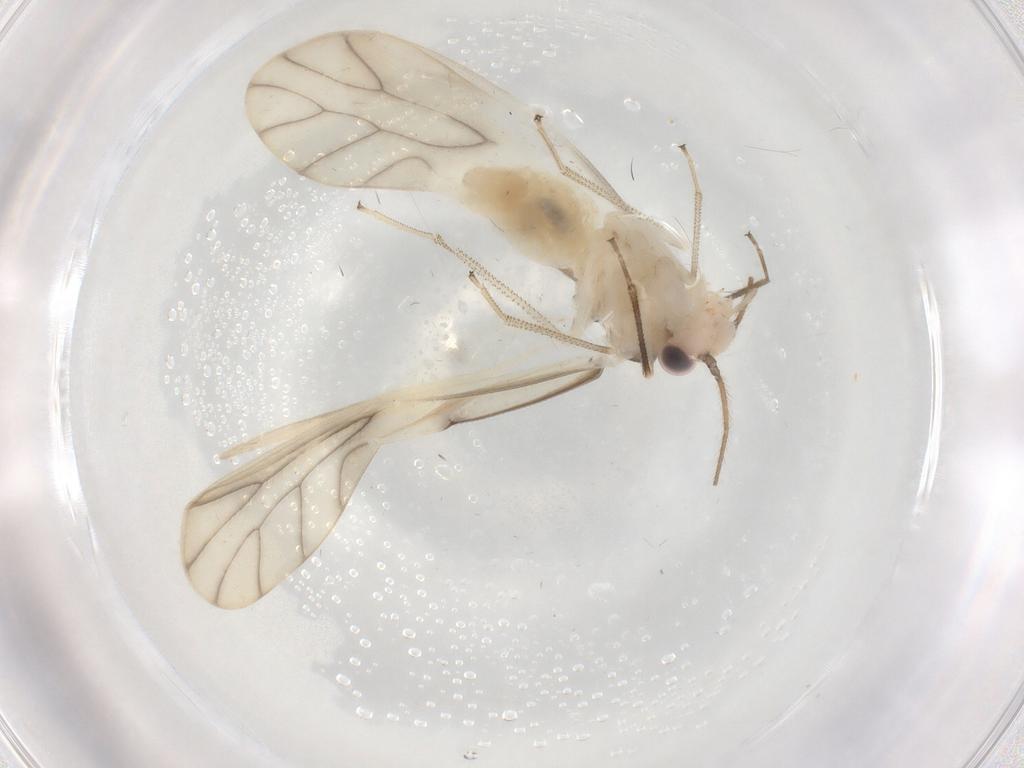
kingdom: Animalia
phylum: Arthropoda
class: Insecta
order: Psocodea
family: Caeciliusidae
